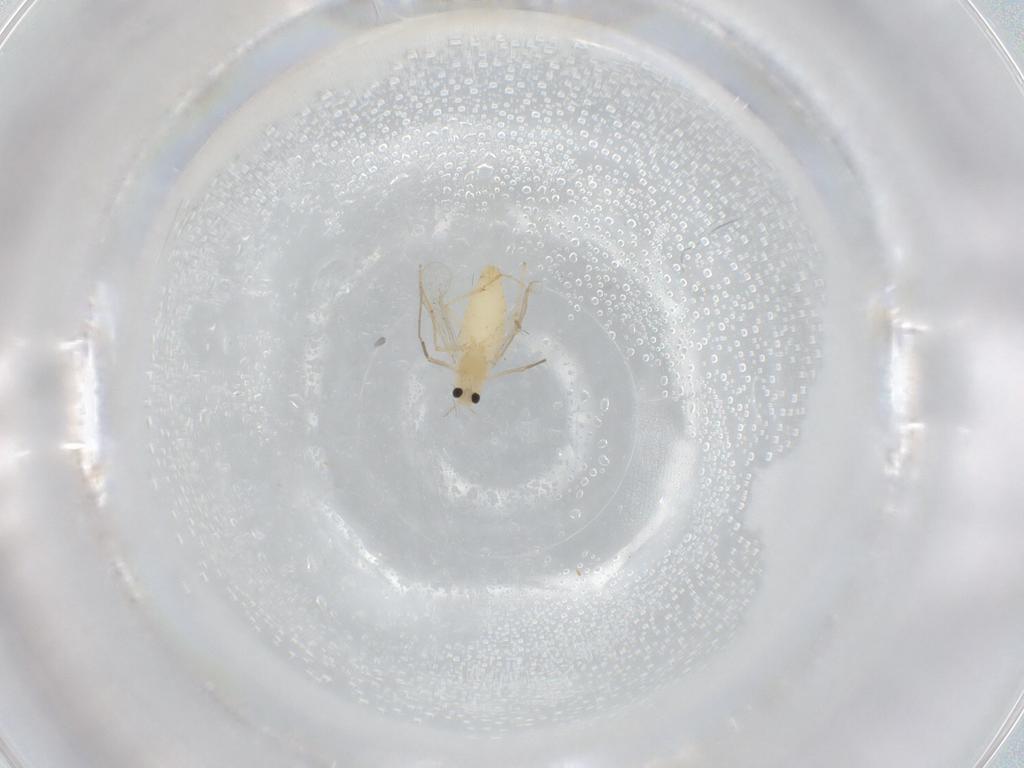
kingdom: Animalia
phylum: Arthropoda
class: Insecta
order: Diptera
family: Chironomidae
